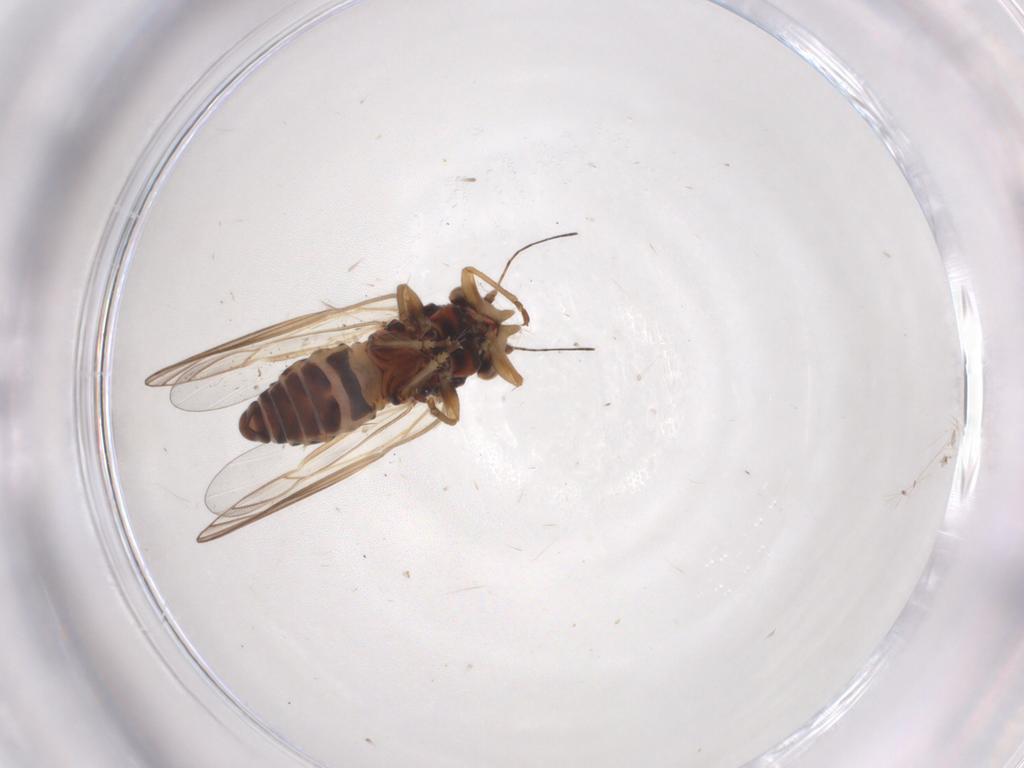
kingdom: Animalia
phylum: Arthropoda
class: Insecta
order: Hemiptera
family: Psyllidae
